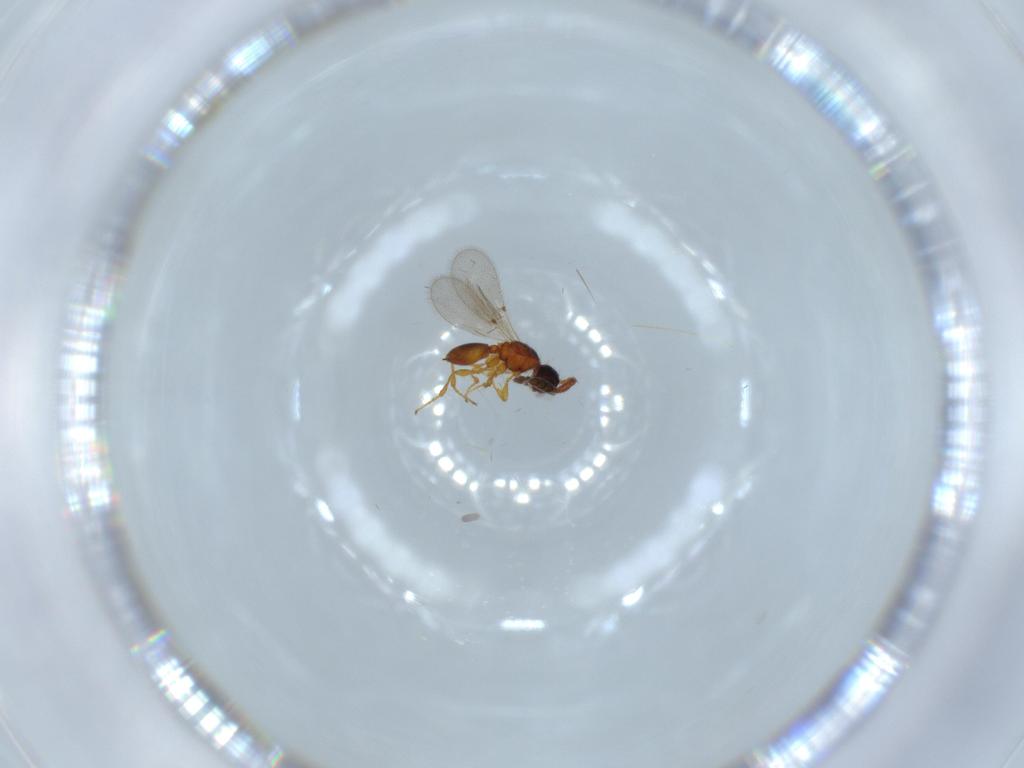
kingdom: Animalia
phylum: Arthropoda
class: Insecta
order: Hymenoptera
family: Diapriidae
